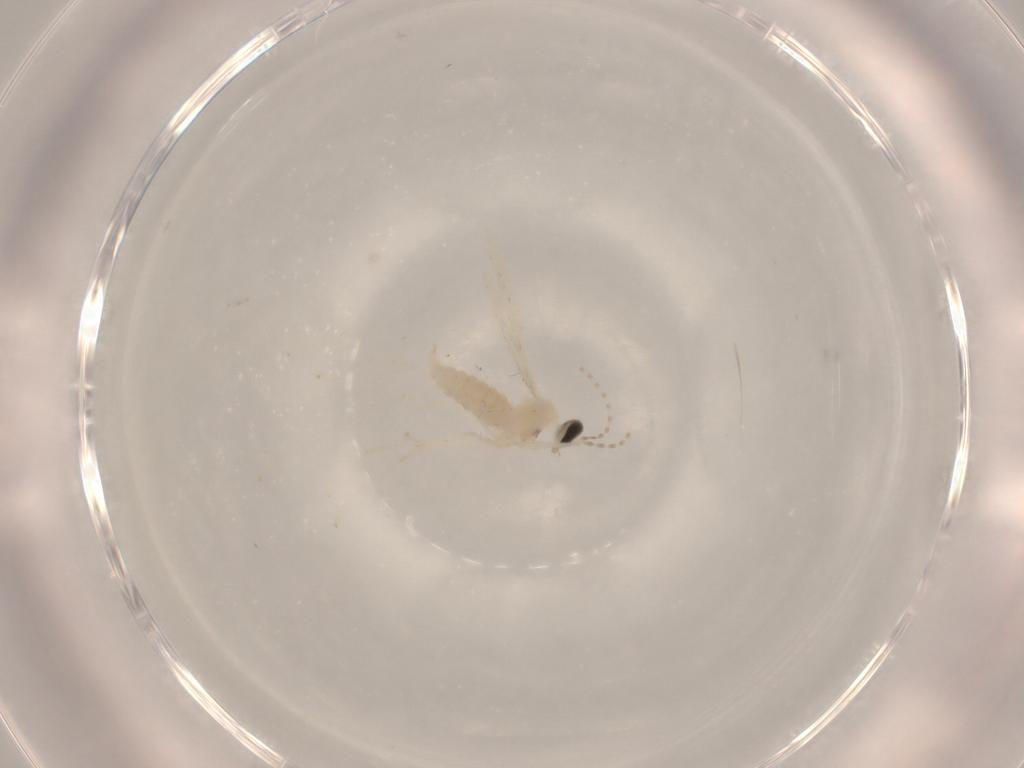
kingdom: Animalia
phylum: Arthropoda
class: Insecta
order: Diptera
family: Cecidomyiidae
